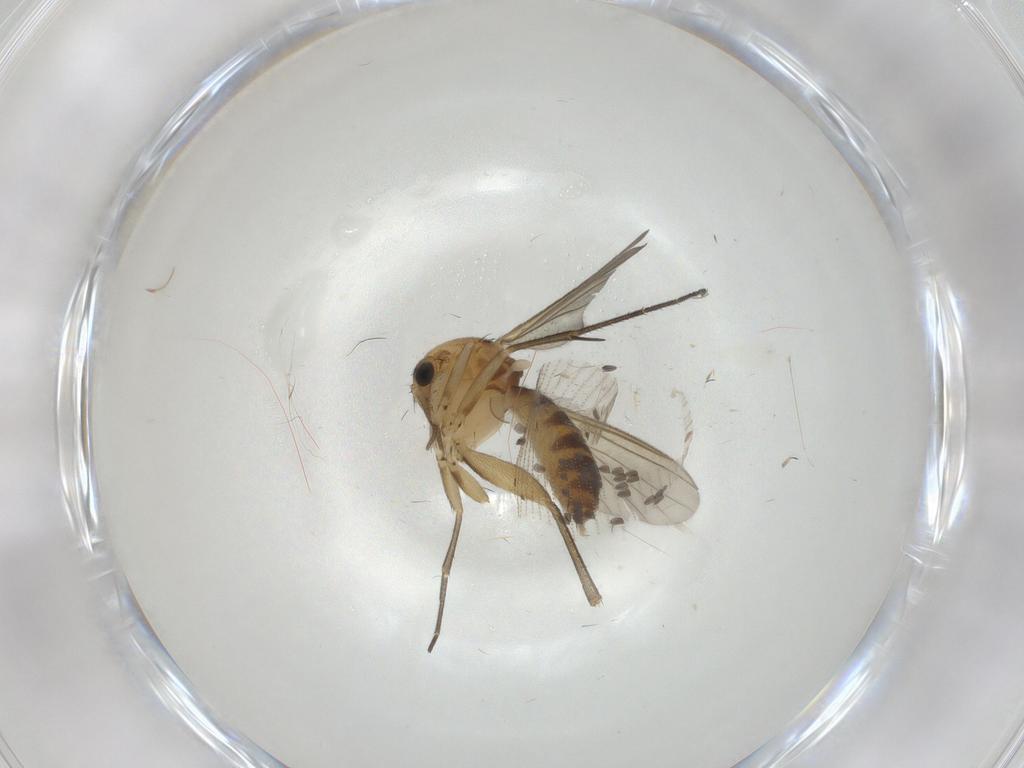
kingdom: Animalia
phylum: Arthropoda
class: Insecta
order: Diptera
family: Mycetophilidae
